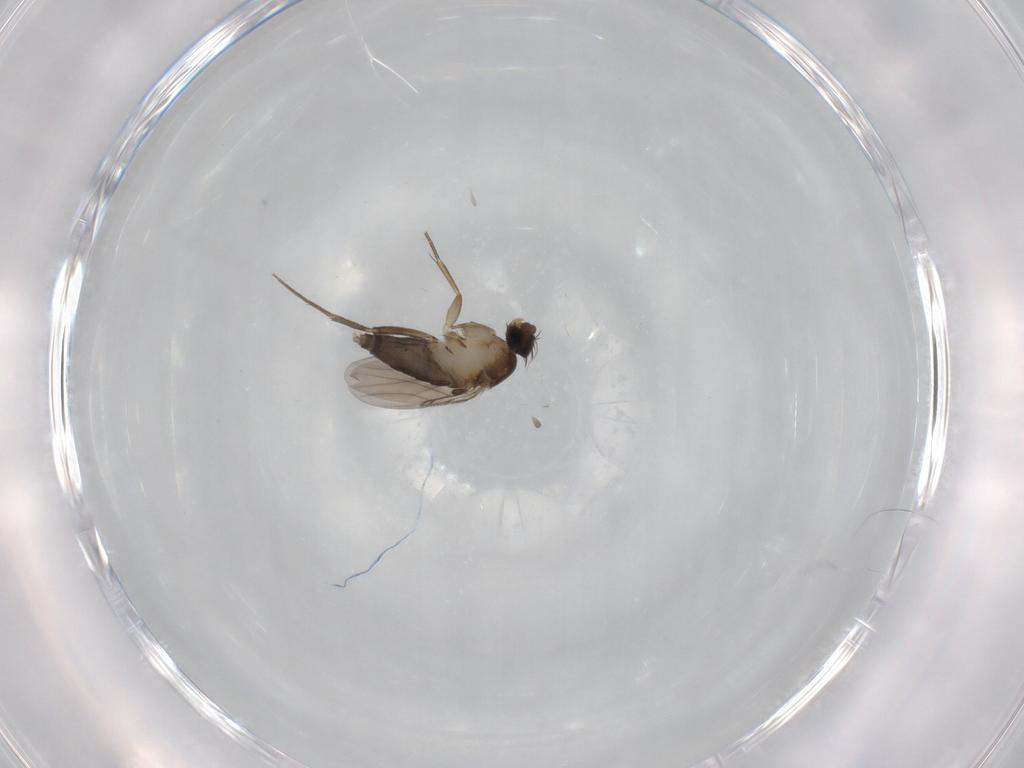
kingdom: Animalia
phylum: Arthropoda
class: Insecta
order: Diptera
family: Phoridae
